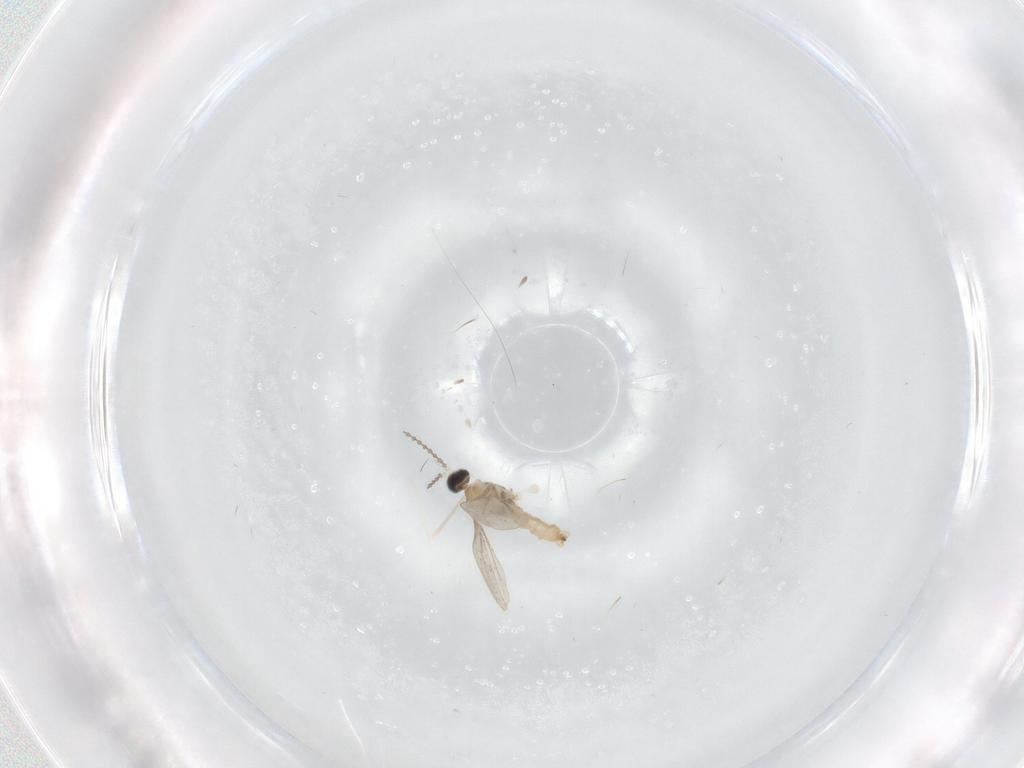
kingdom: Animalia
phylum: Arthropoda
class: Insecta
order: Diptera
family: Cecidomyiidae
